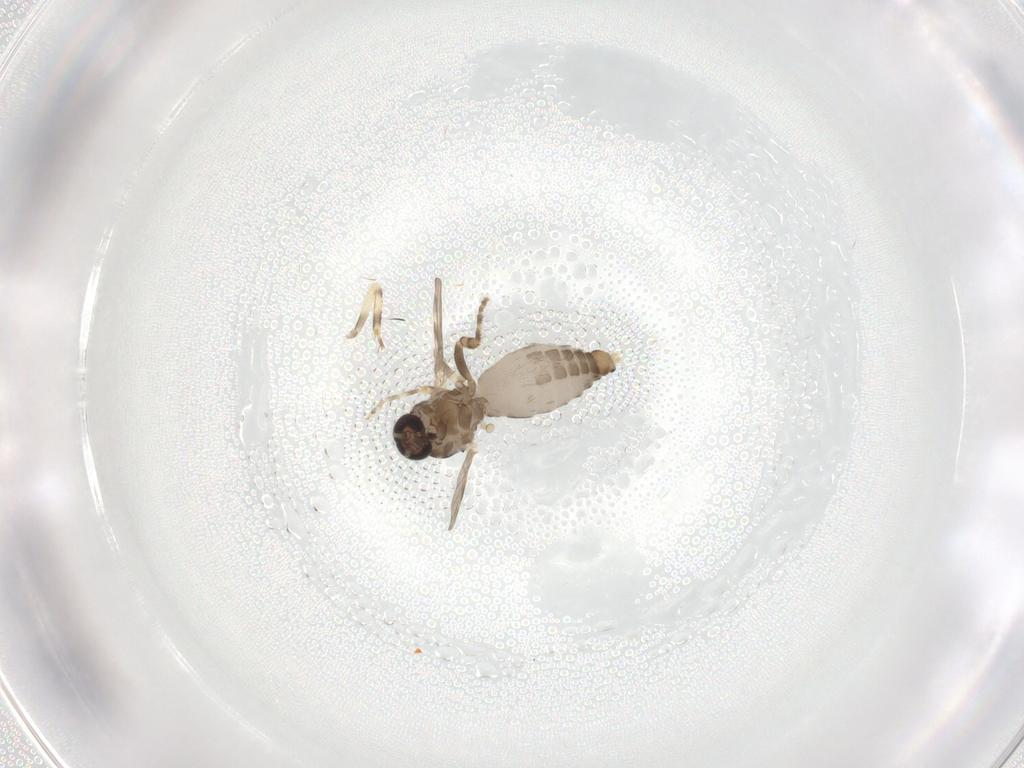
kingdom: Animalia
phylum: Arthropoda
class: Insecta
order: Diptera
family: Ceratopogonidae
